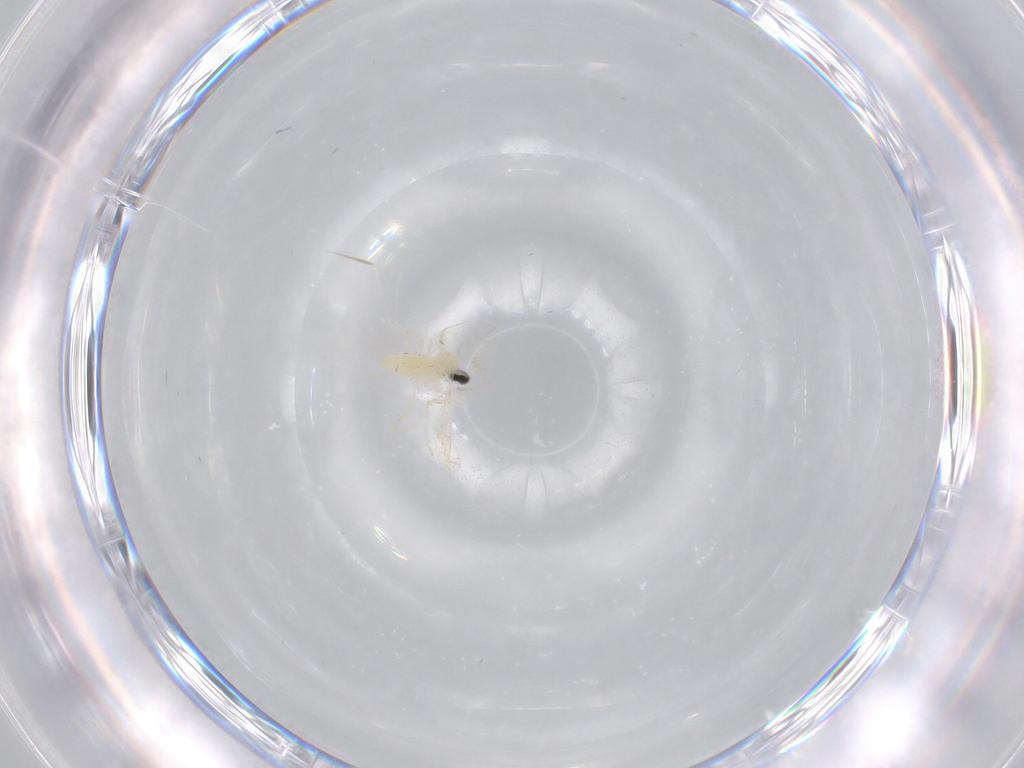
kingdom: Animalia
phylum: Arthropoda
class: Insecta
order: Diptera
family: Cecidomyiidae
